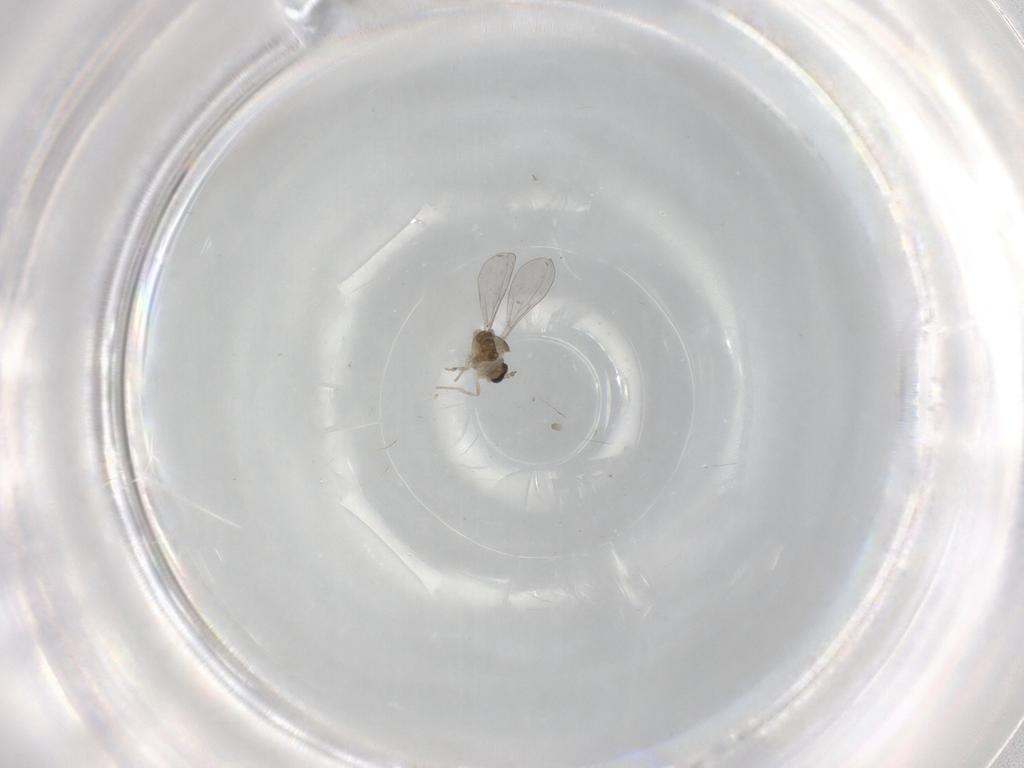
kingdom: Animalia
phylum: Arthropoda
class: Insecta
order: Diptera
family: Cecidomyiidae
